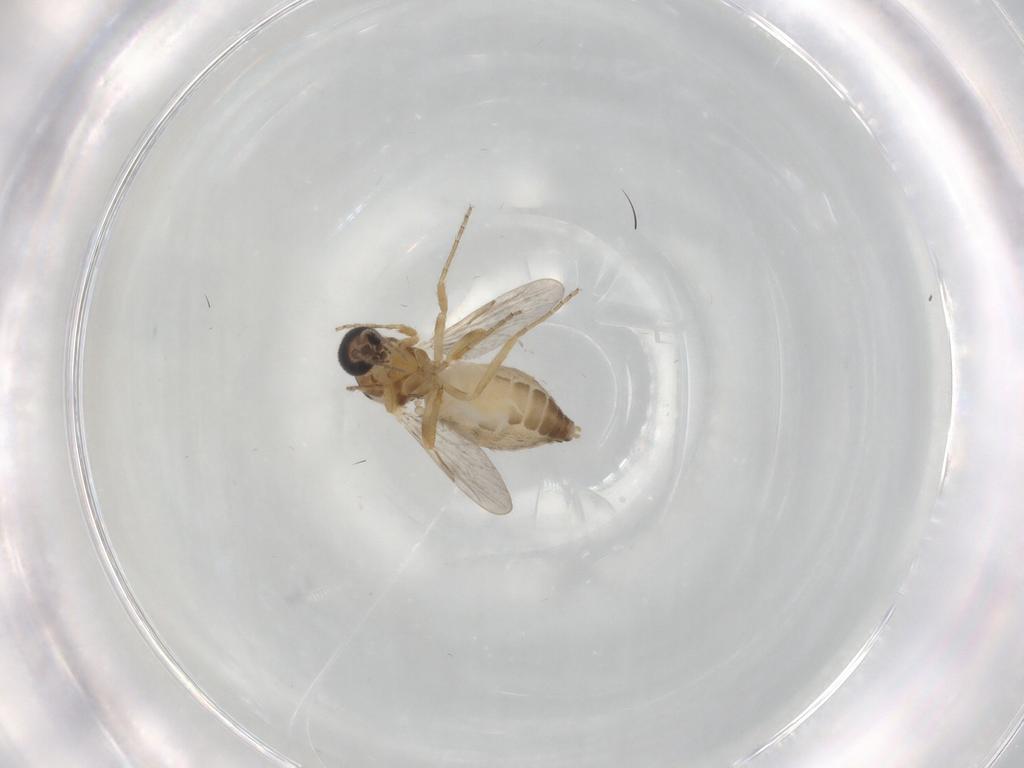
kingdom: Animalia
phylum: Arthropoda
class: Insecta
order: Diptera
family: Ceratopogonidae
